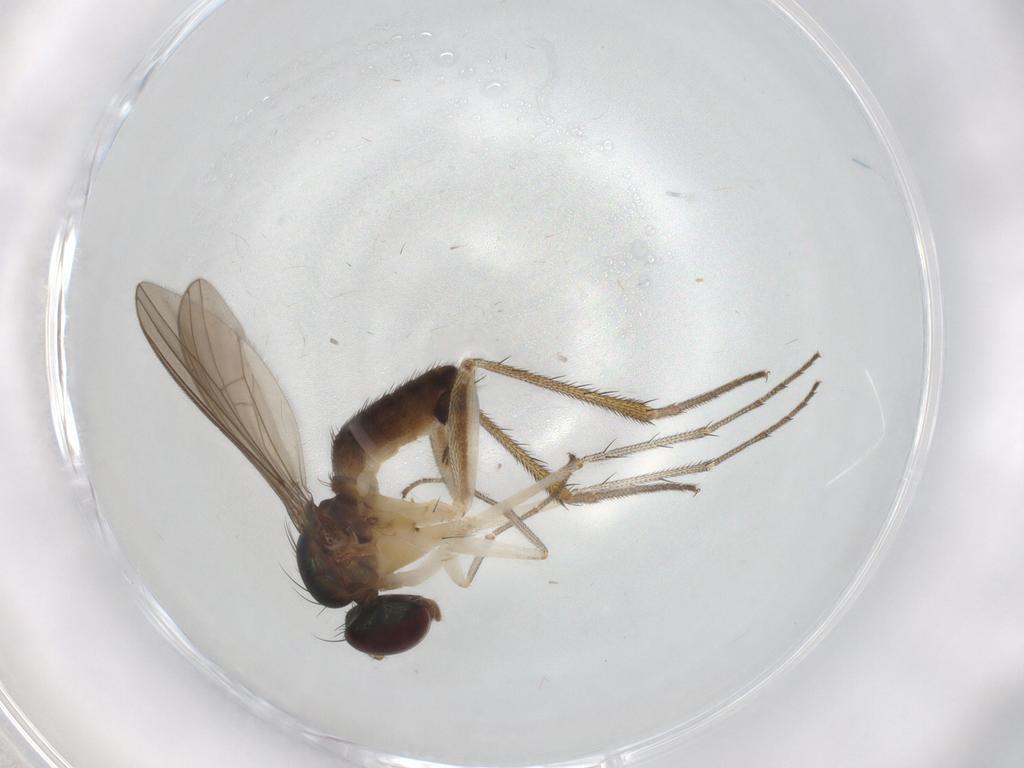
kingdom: Animalia
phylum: Arthropoda
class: Insecta
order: Diptera
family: Dolichopodidae
